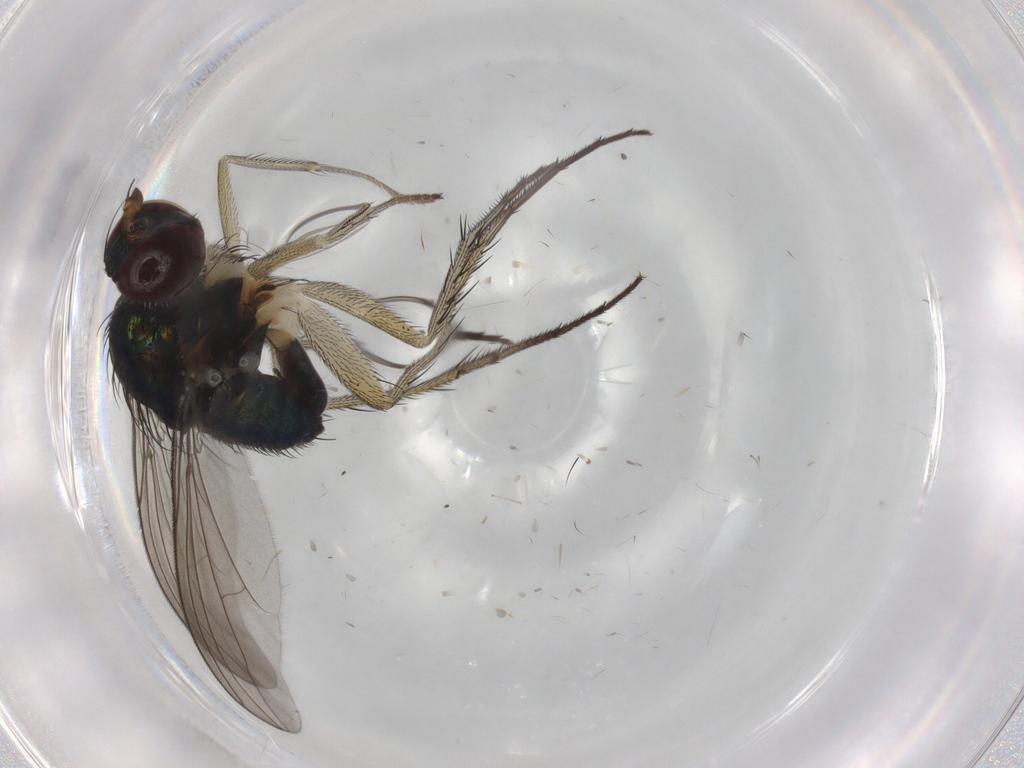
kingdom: Animalia
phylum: Arthropoda
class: Insecta
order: Diptera
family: Dolichopodidae
